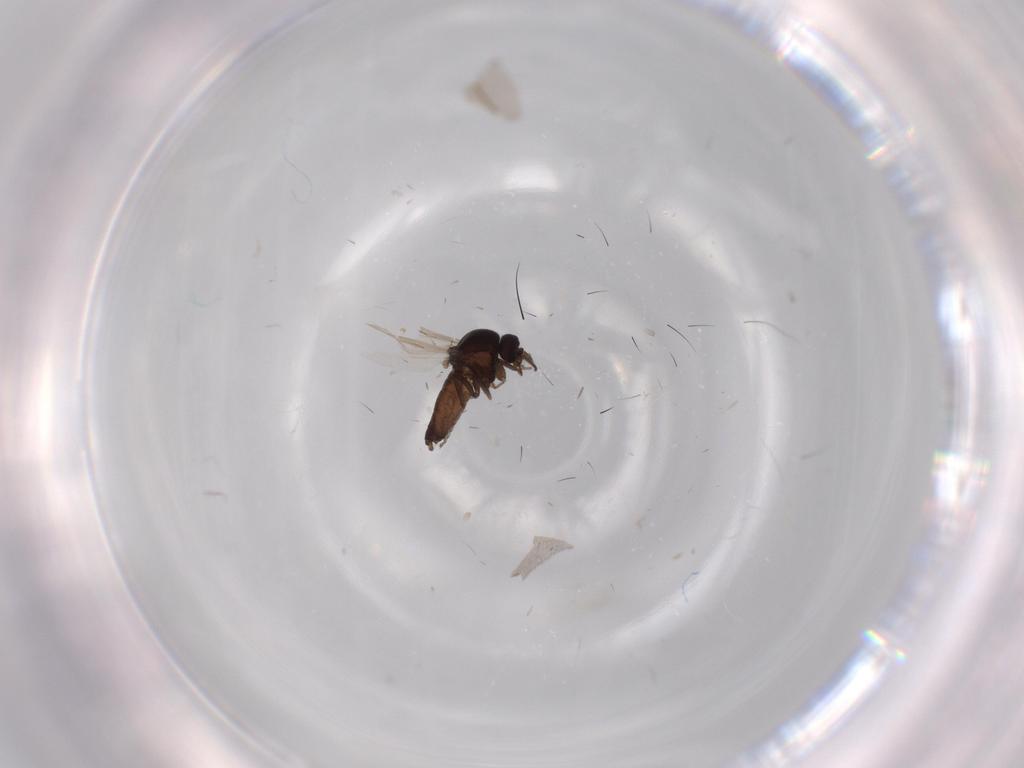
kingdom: Animalia
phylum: Arthropoda
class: Insecta
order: Diptera
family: Ceratopogonidae
